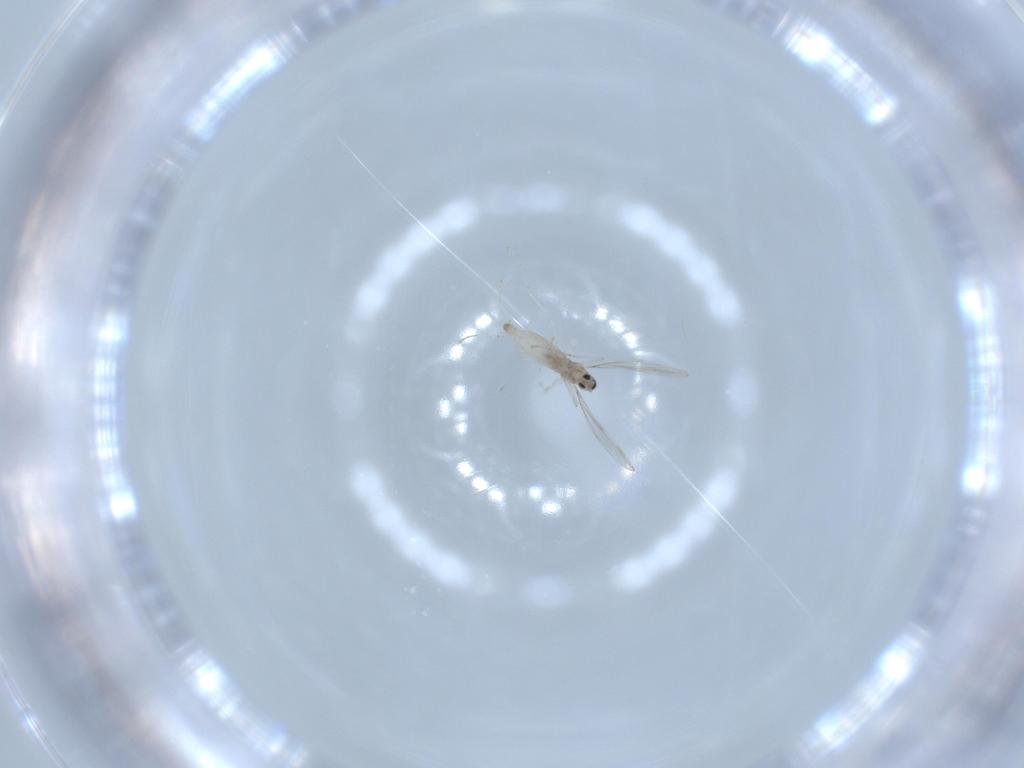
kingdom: Animalia
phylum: Arthropoda
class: Insecta
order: Diptera
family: Cecidomyiidae
